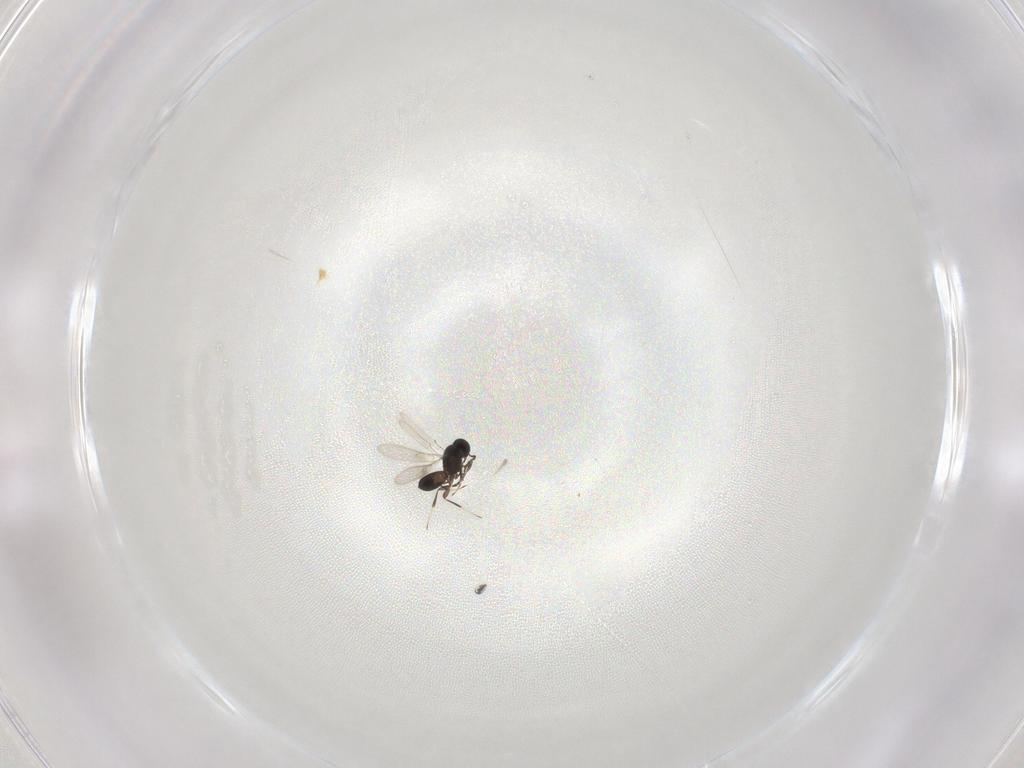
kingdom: Animalia
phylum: Arthropoda
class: Insecta
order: Hymenoptera
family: Scelionidae
